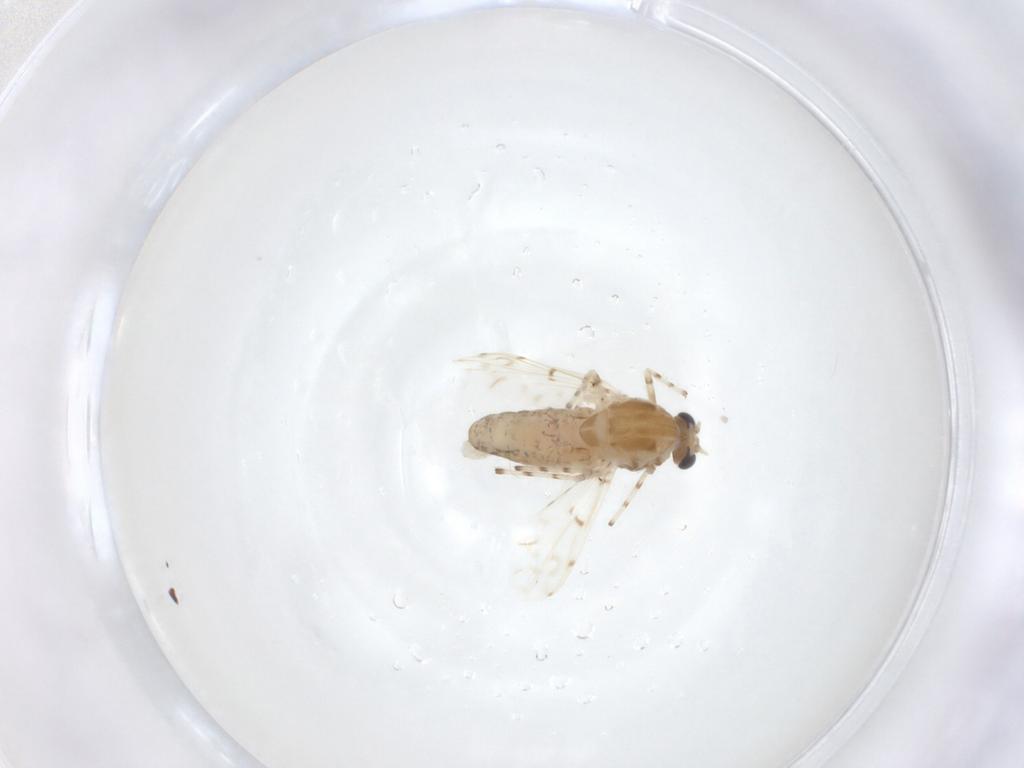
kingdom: Animalia
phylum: Arthropoda
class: Insecta
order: Diptera
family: Chironomidae
